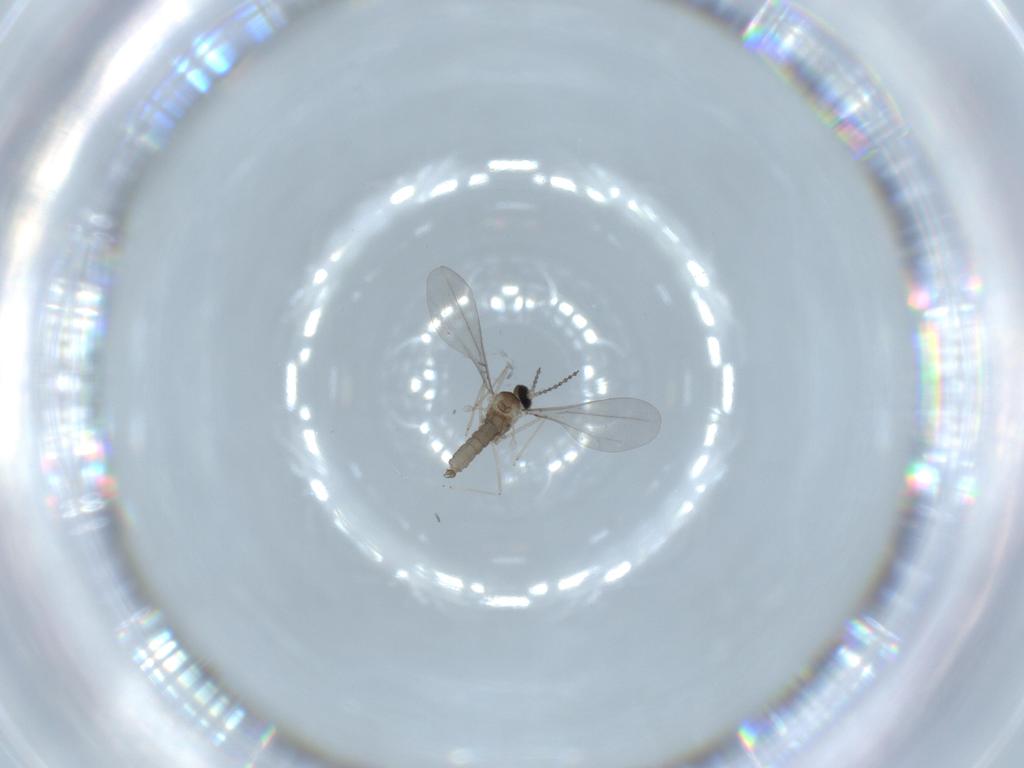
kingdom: Animalia
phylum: Arthropoda
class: Insecta
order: Diptera
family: Cecidomyiidae
